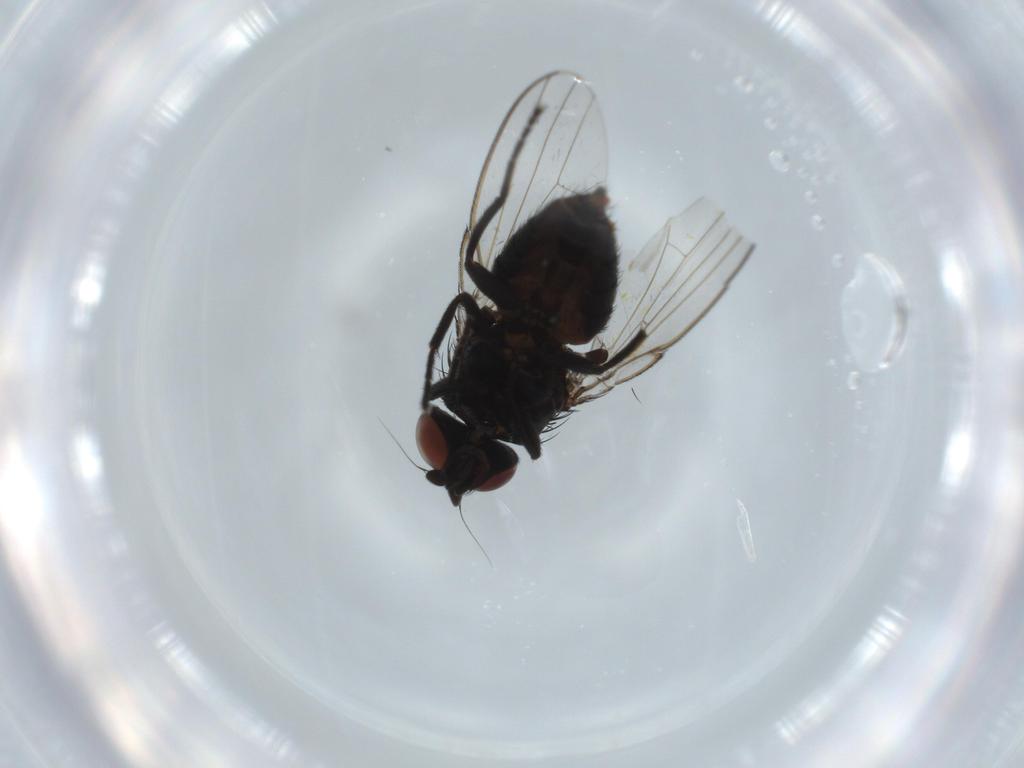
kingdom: Animalia
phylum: Arthropoda
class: Insecta
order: Diptera
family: Milichiidae
